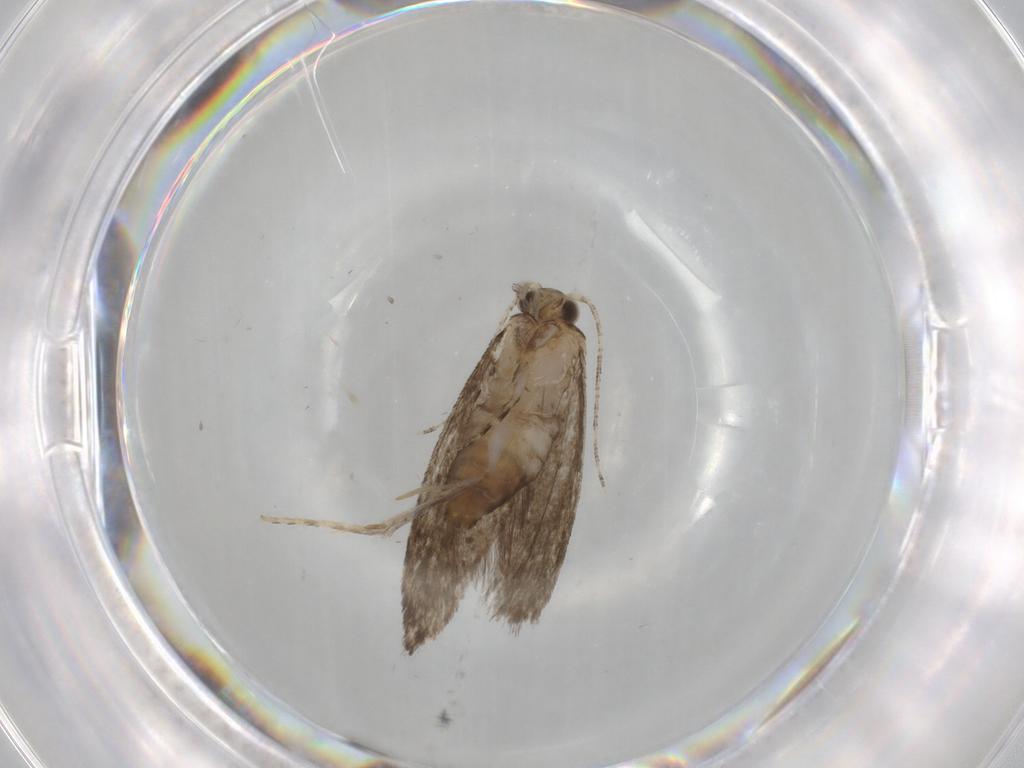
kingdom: Animalia
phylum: Arthropoda
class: Insecta
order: Lepidoptera
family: Tineidae
